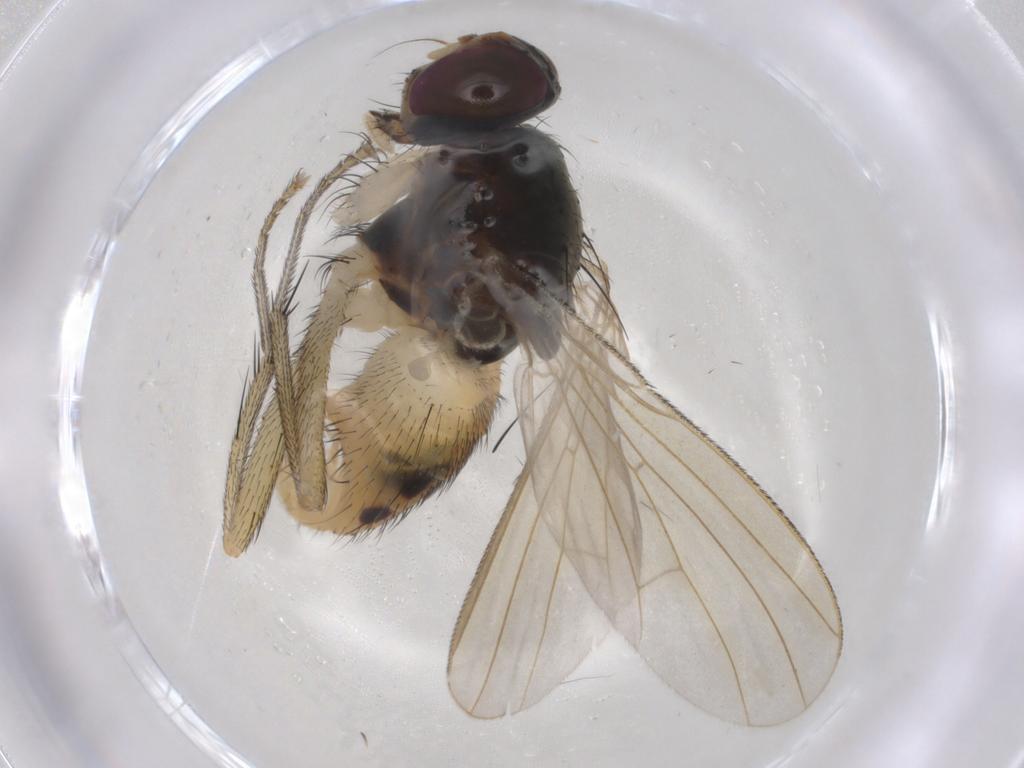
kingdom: Animalia
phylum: Arthropoda
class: Insecta
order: Diptera
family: Muscidae
